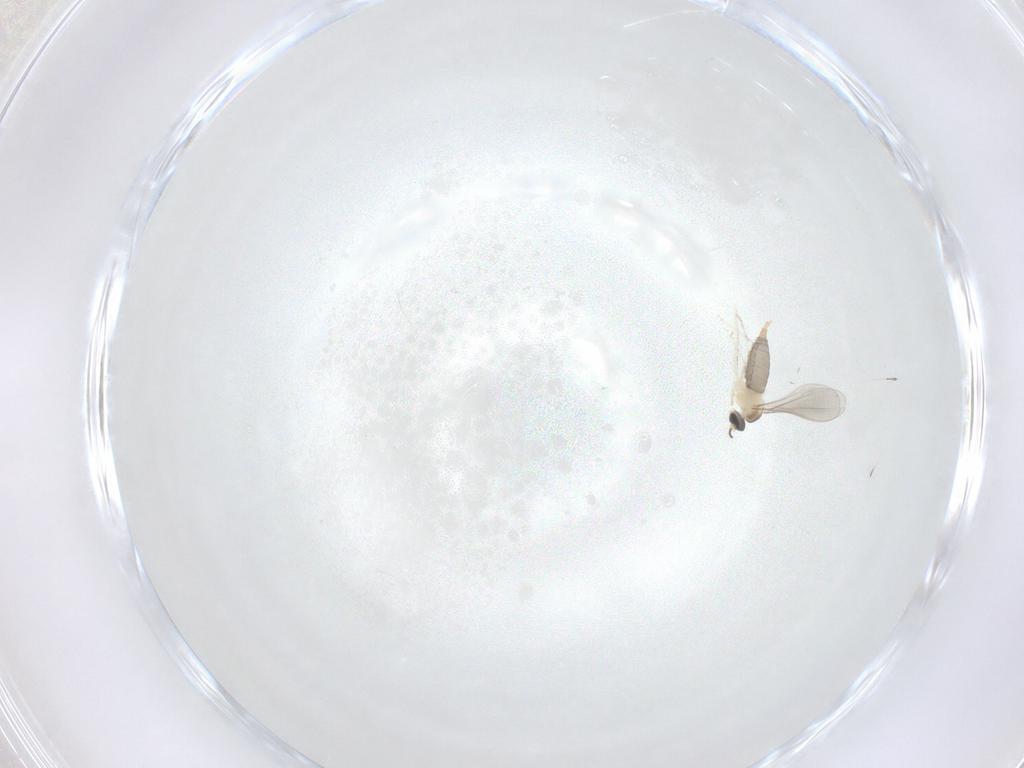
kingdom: Animalia
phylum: Arthropoda
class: Insecta
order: Diptera
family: Cecidomyiidae
